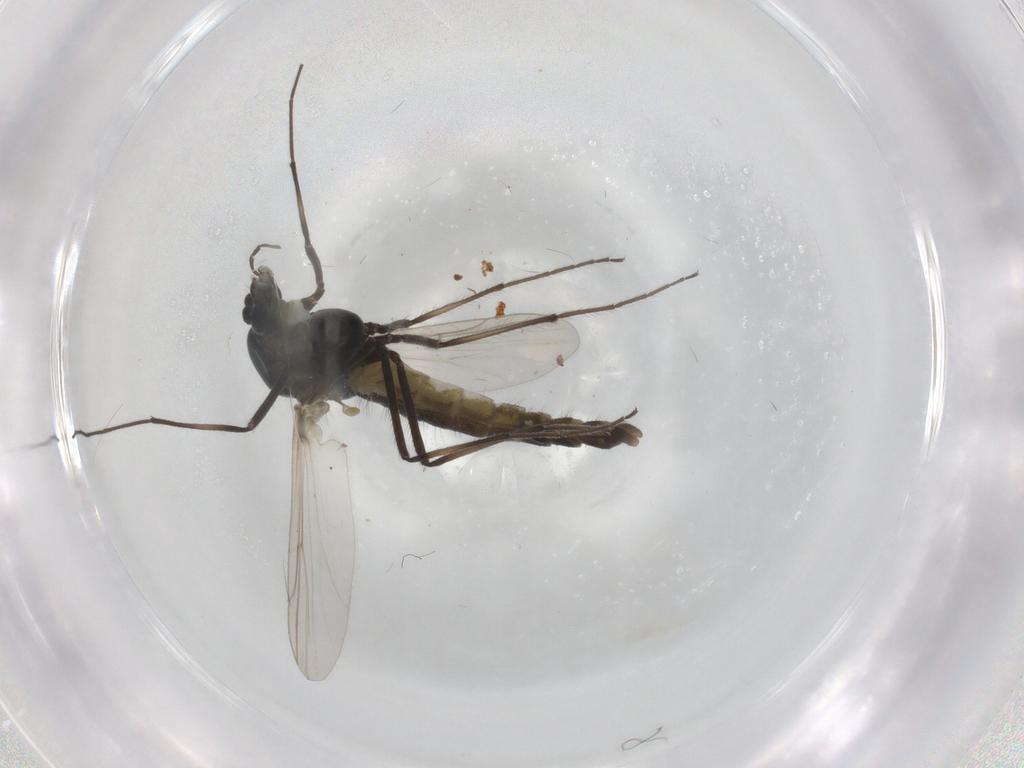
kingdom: Animalia
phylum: Arthropoda
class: Insecta
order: Diptera
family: Chironomidae
